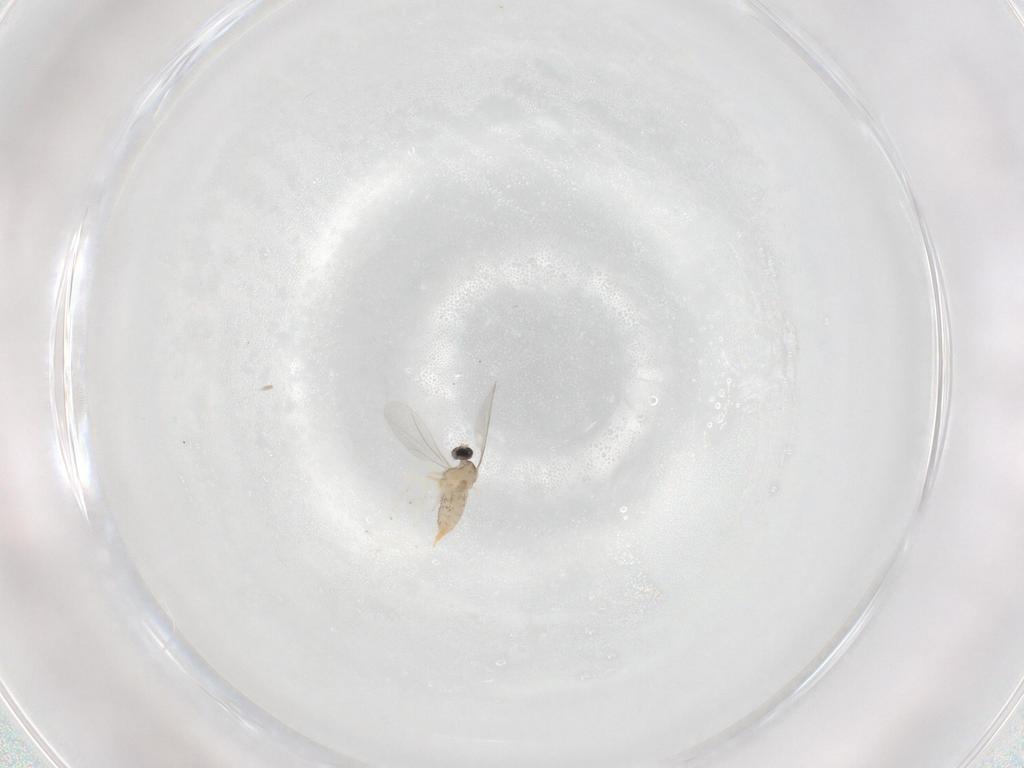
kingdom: Animalia
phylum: Arthropoda
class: Insecta
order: Diptera
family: Cecidomyiidae
